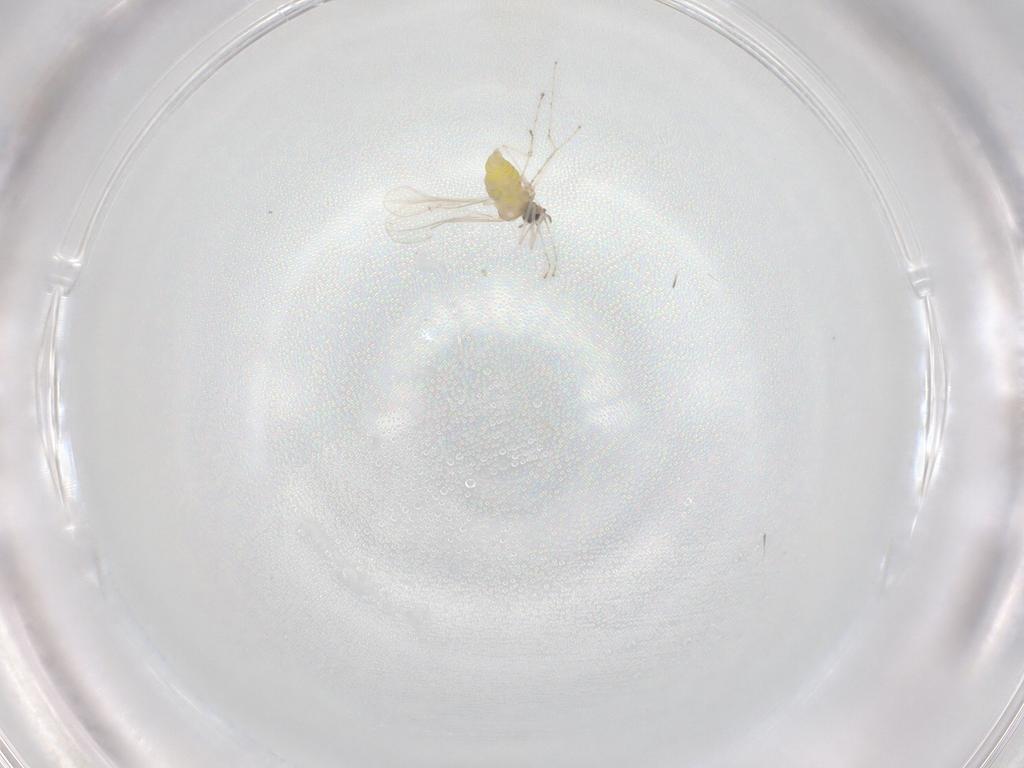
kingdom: Animalia
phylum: Arthropoda
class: Insecta
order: Diptera
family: Cecidomyiidae
